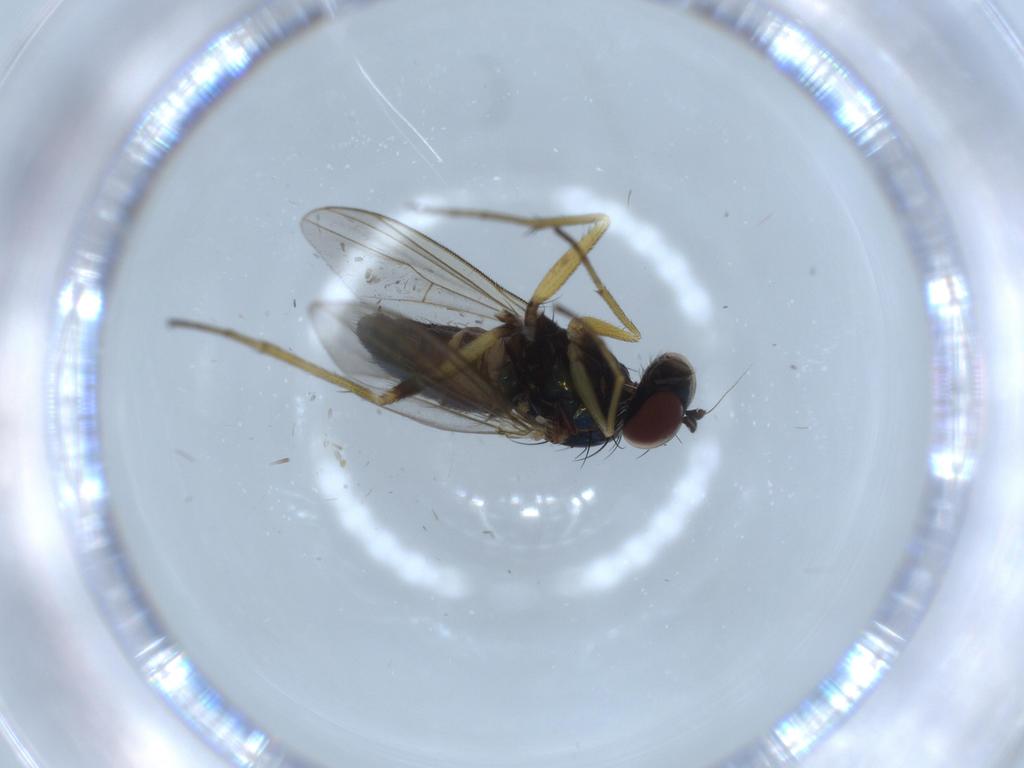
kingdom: Animalia
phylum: Arthropoda
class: Insecta
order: Diptera
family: Dolichopodidae
